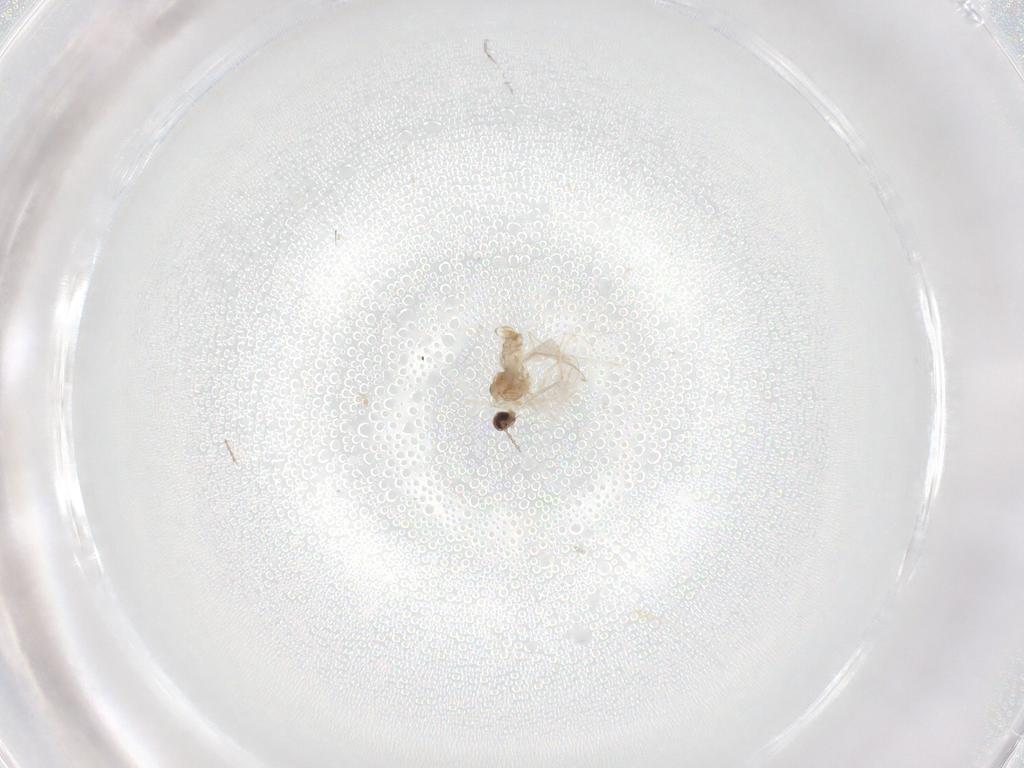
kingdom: Animalia
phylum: Arthropoda
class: Insecta
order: Diptera
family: Cecidomyiidae
